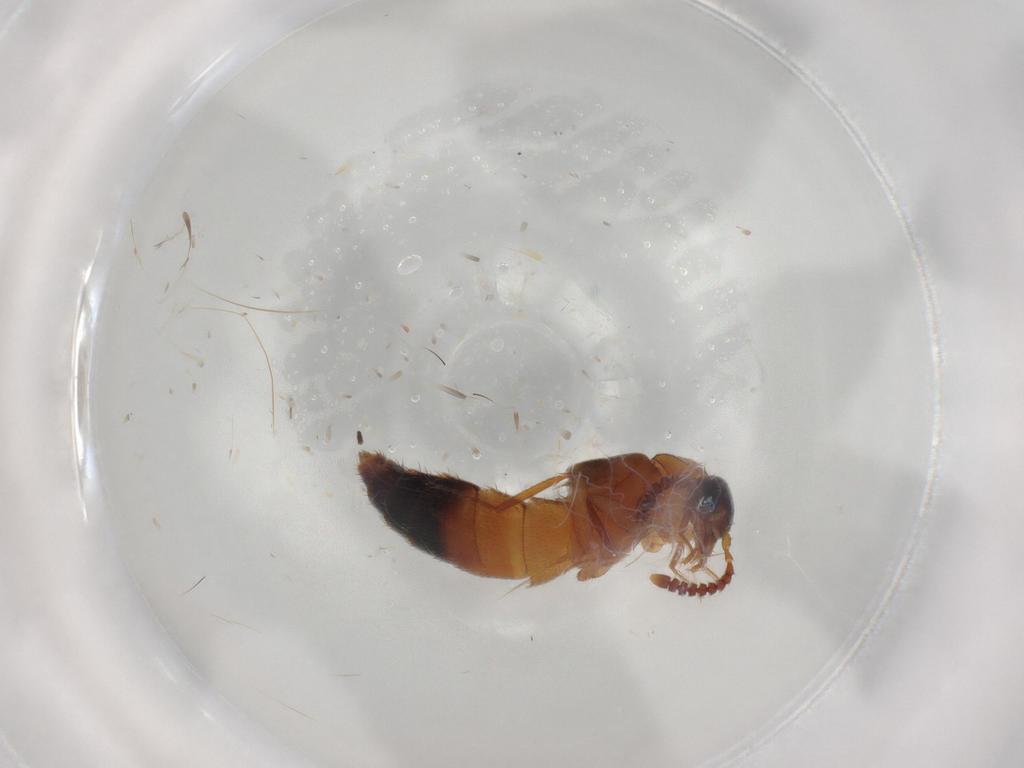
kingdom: Animalia
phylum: Arthropoda
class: Insecta
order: Coleoptera
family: Staphylinidae
